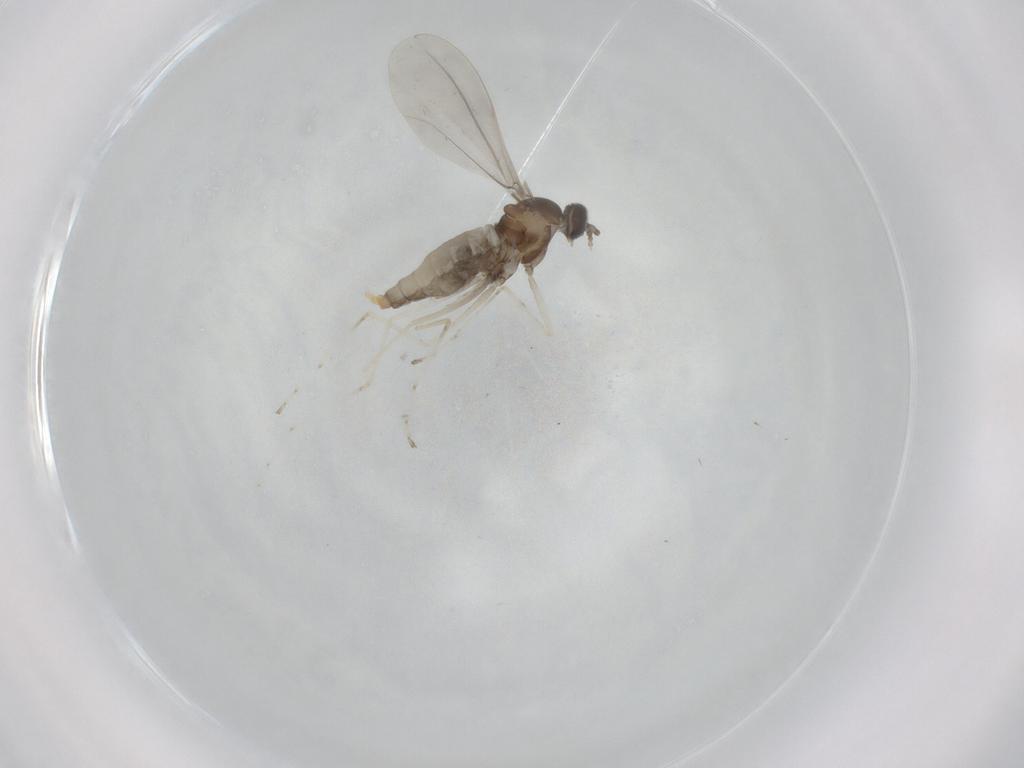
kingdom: Animalia
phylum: Arthropoda
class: Insecta
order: Diptera
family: Cecidomyiidae
